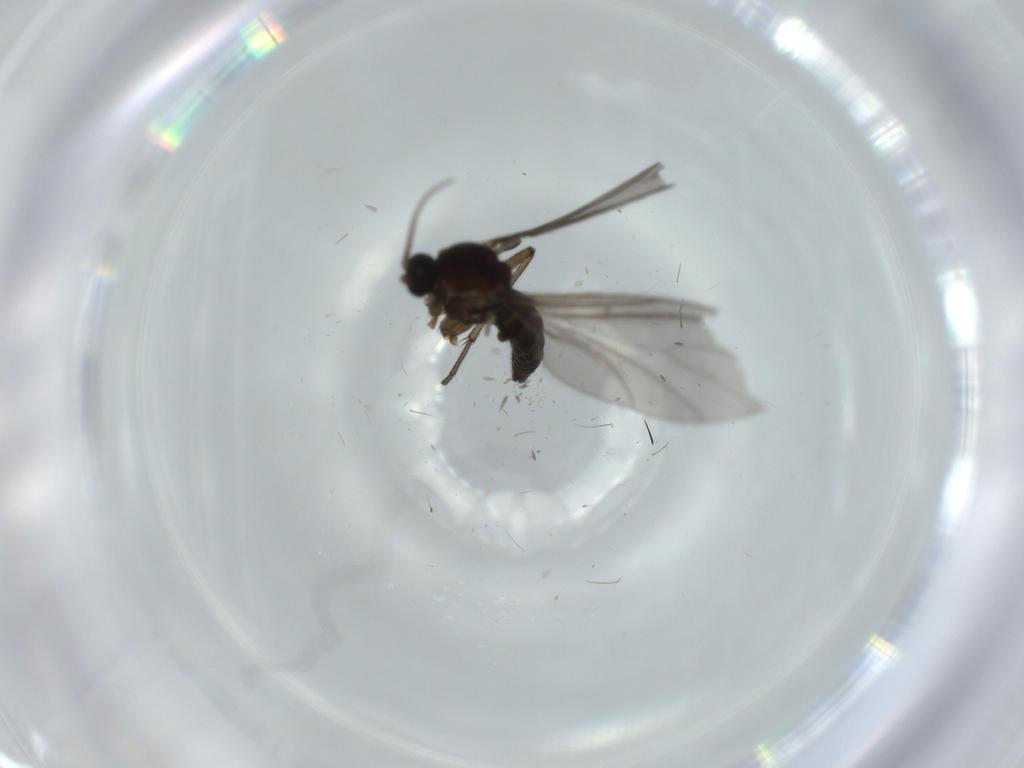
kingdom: Animalia
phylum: Arthropoda
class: Insecta
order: Diptera
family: Sciaridae
